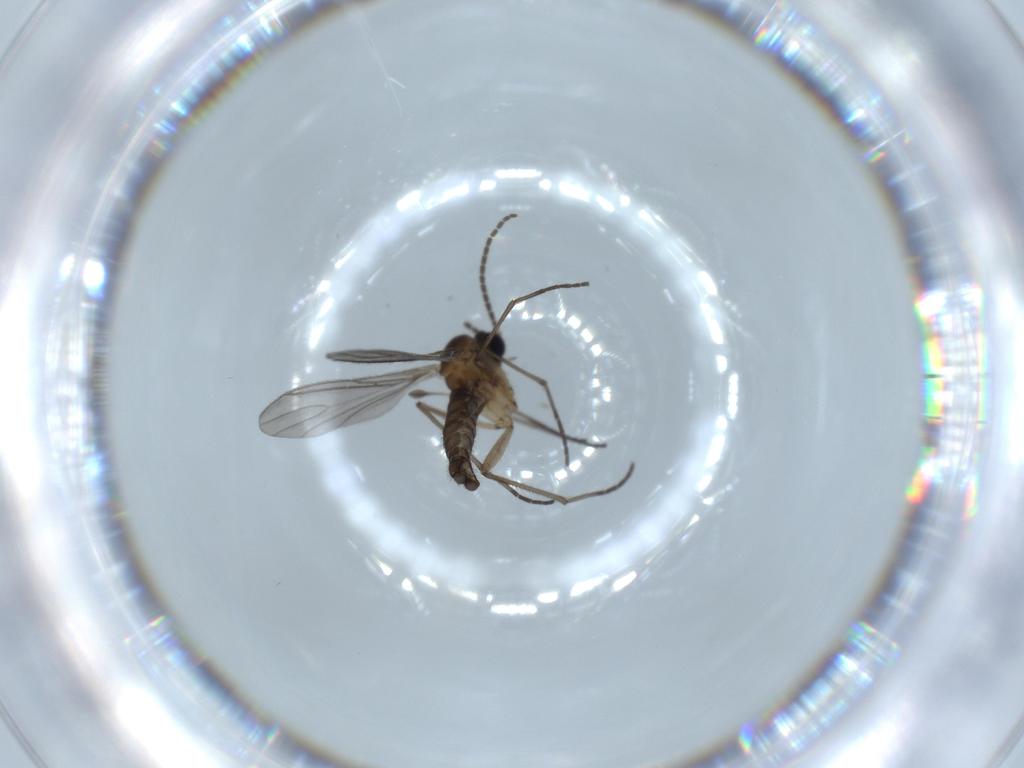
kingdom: Animalia
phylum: Arthropoda
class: Insecta
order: Diptera
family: Sciaridae
